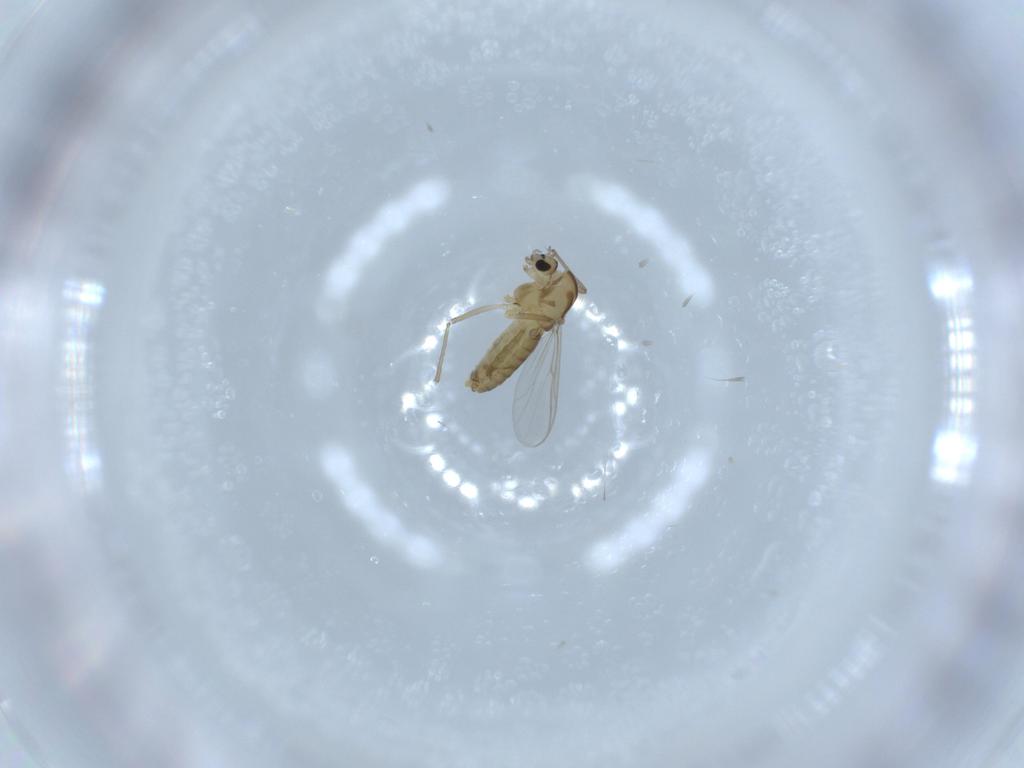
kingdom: Animalia
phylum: Arthropoda
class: Insecta
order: Diptera
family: Chironomidae
